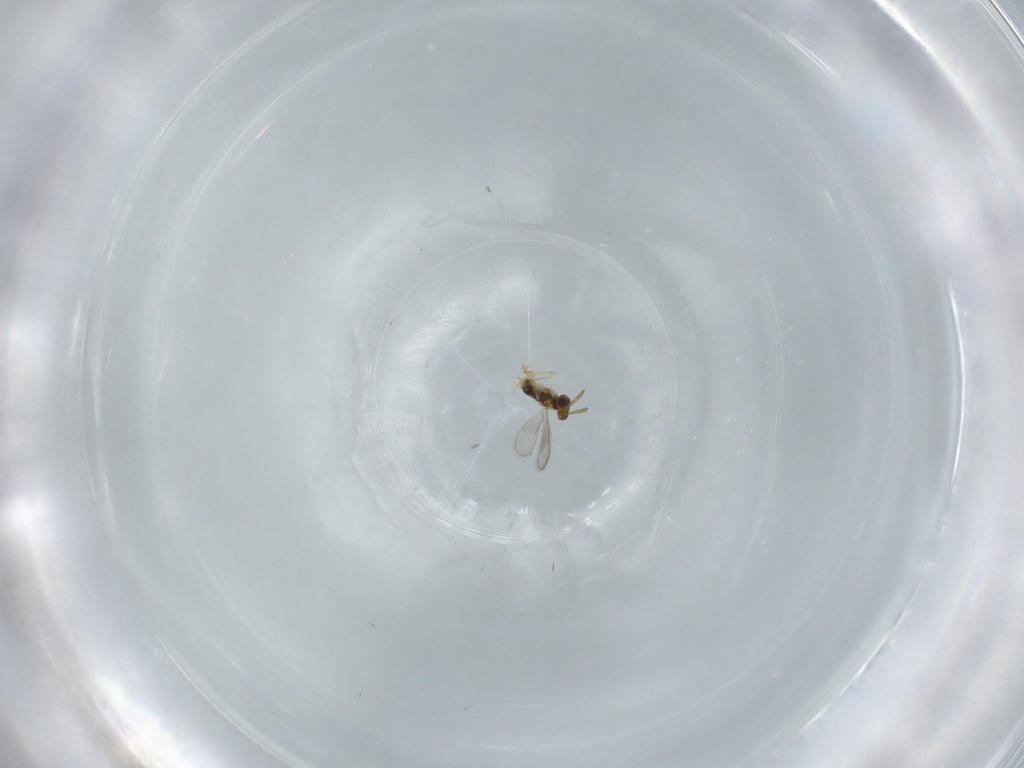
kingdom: Animalia
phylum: Arthropoda
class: Insecta
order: Hymenoptera
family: Aphelinidae
